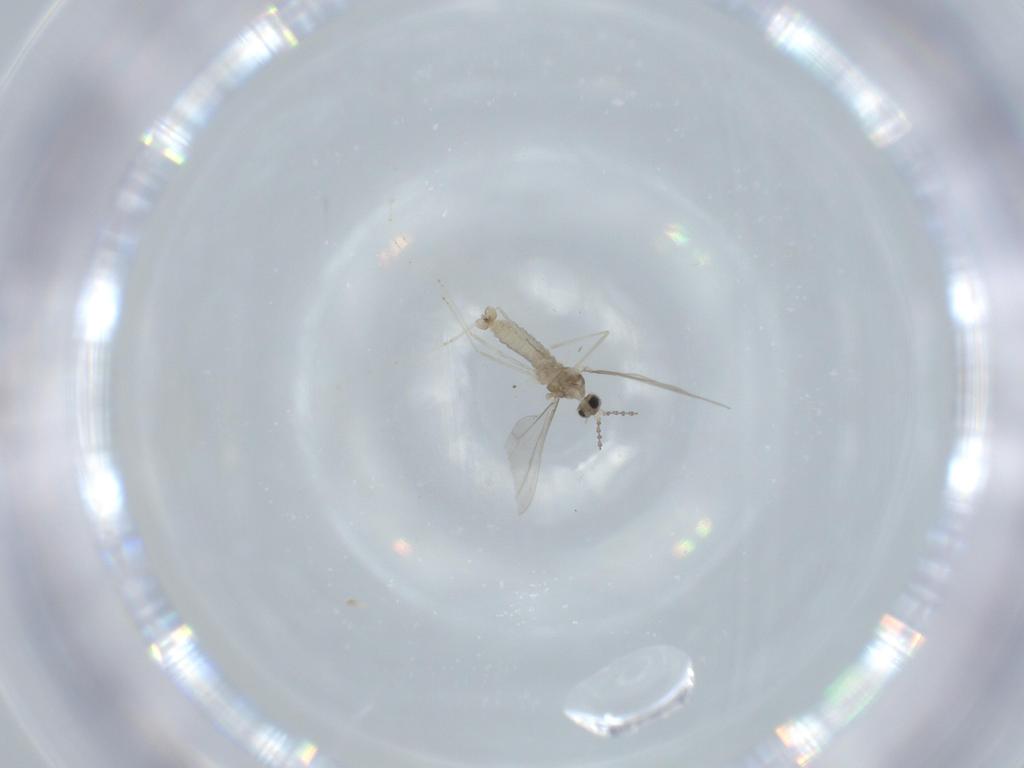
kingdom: Animalia
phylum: Arthropoda
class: Insecta
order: Diptera
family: Cecidomyiidae
